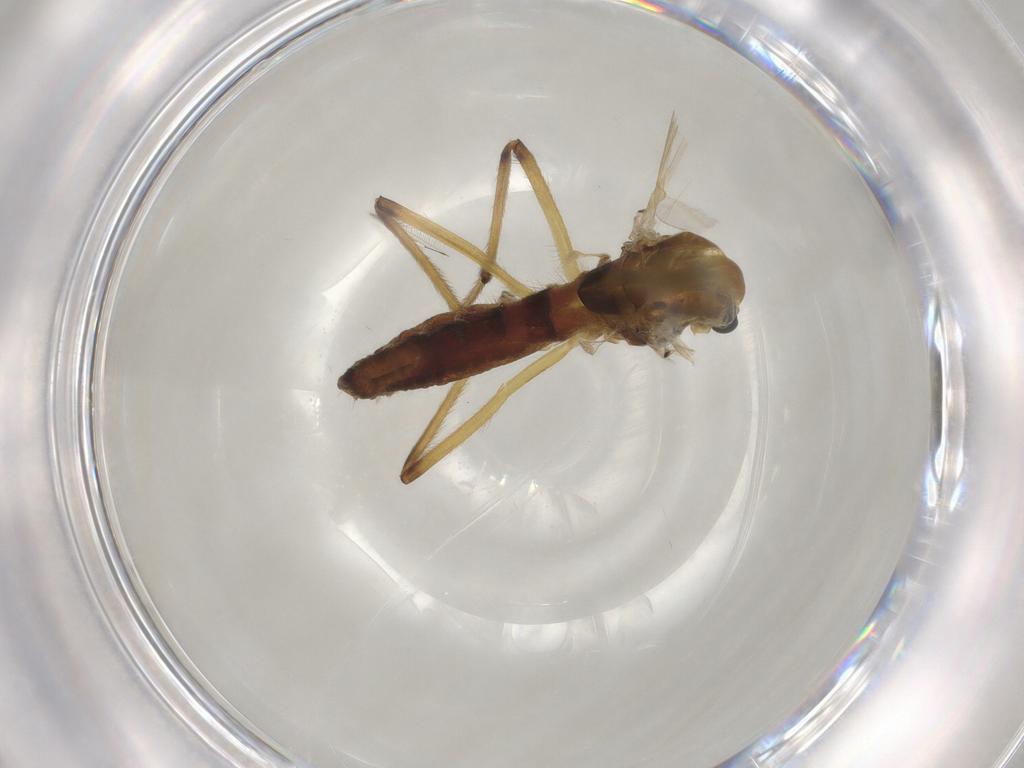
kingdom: Animalia
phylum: Arthropoda
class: Insecta
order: Diptera
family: Chironomidae
